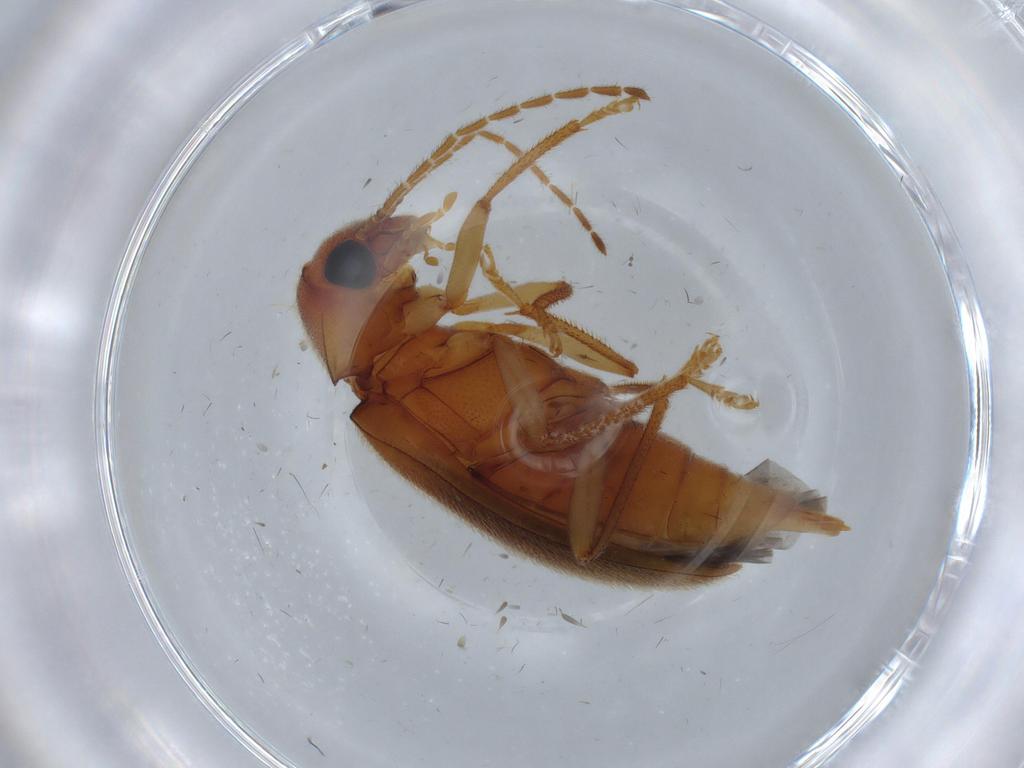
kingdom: Animalia
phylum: Arthropoda
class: Insecta
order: Coleoptera
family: Ptilodactylidae
